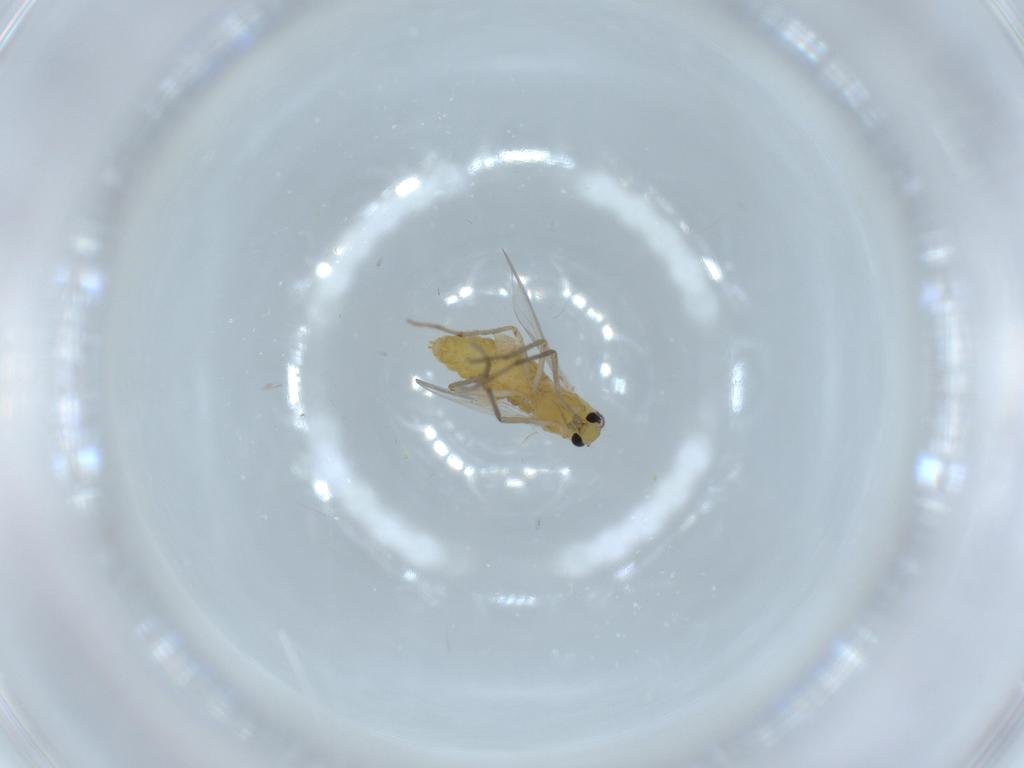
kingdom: Animalia
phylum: Arthropoda
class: Insecta
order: Diptera
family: Chironomidae
